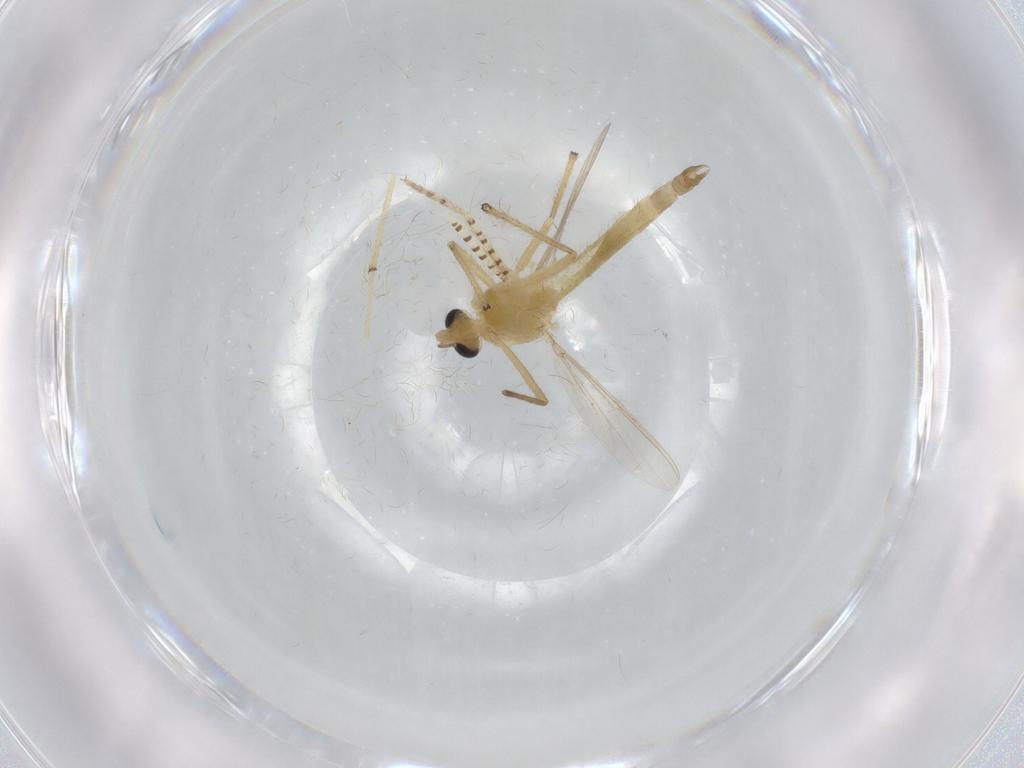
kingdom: Animalia
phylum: Arthropoda
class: Insecta
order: Diptera
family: Chironomidae
